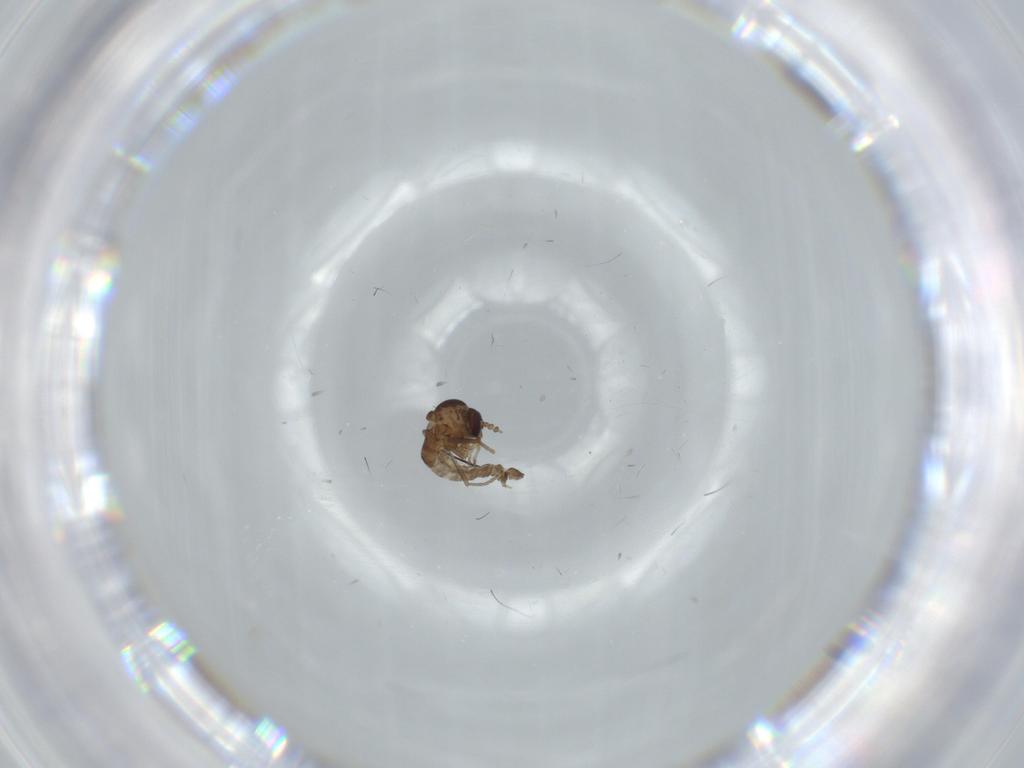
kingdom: Animalia
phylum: Arthropoda
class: Insecta
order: Diptera
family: Psychodidae
